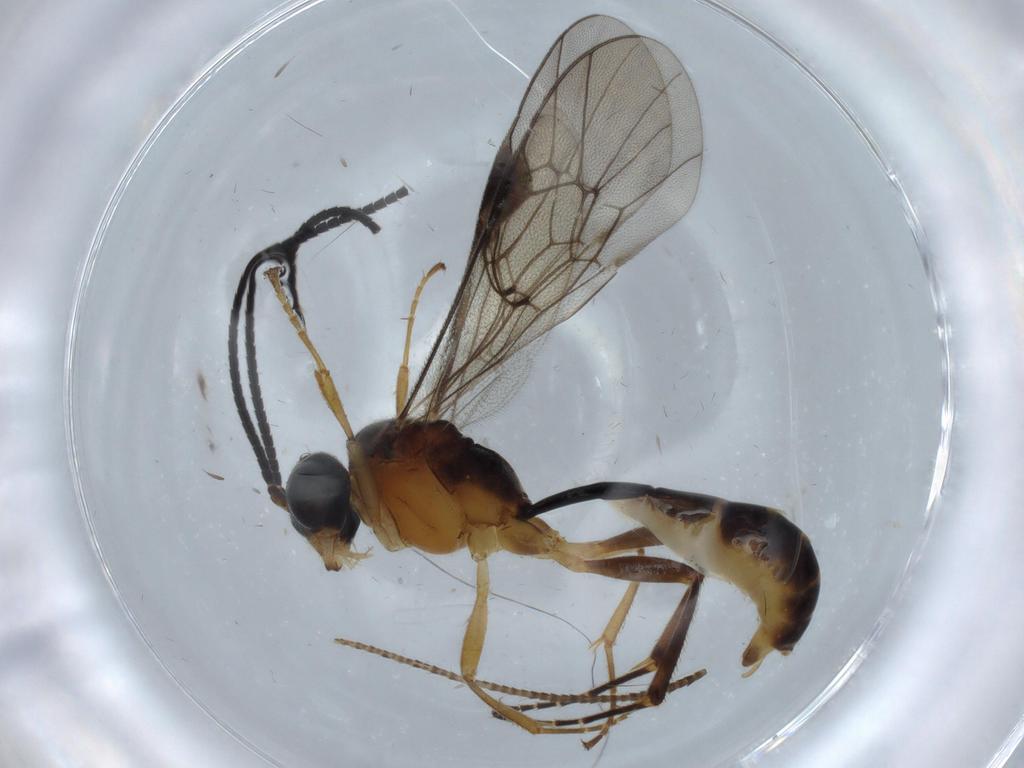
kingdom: Animalia
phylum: Arthropoda
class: Insecta
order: Hymenoptera
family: Diapriidae
